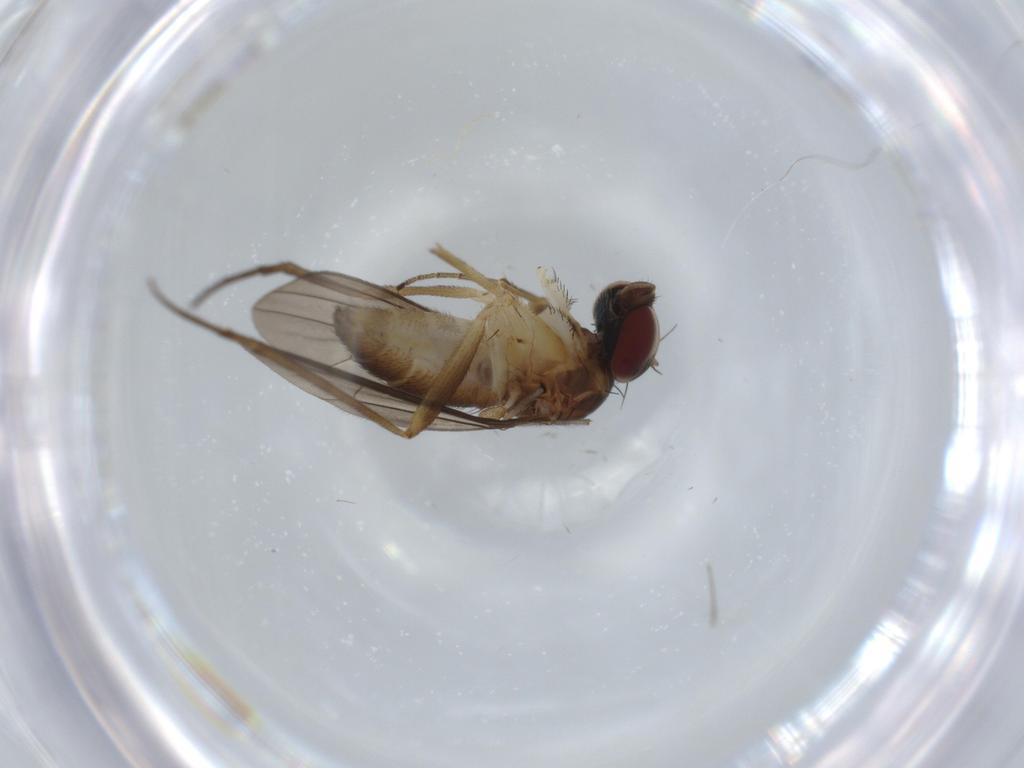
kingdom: Animalia
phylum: Arthropoda
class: Insecta
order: Diptera
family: Dolichopodidae
